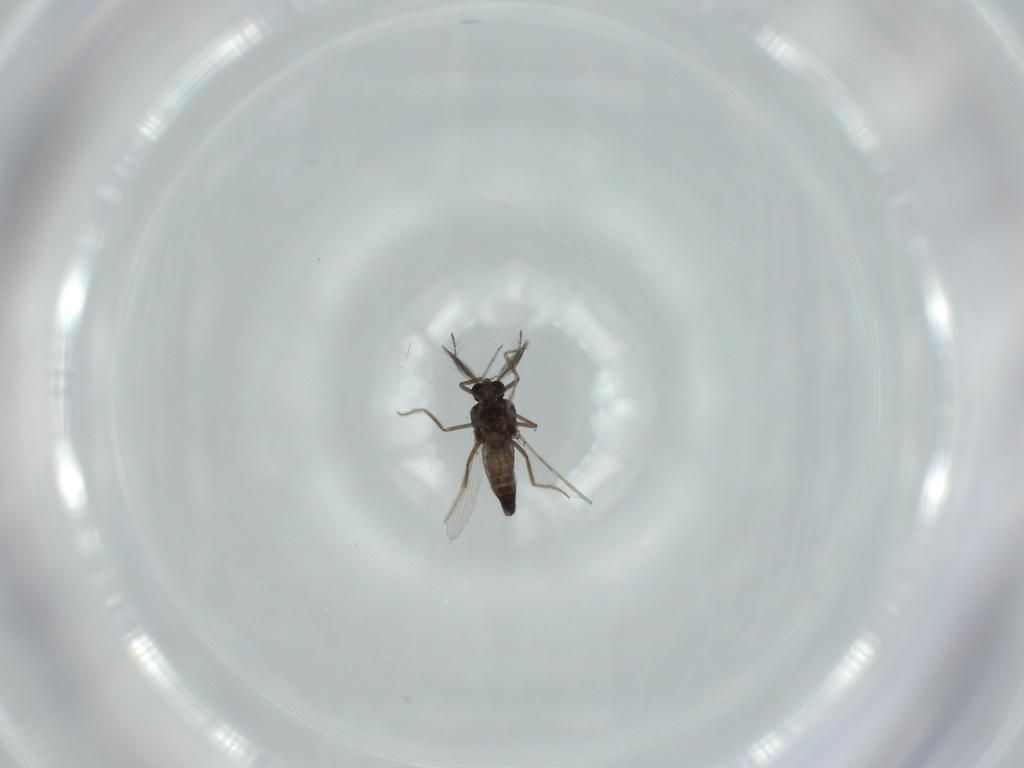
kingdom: Animalia
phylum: Arthropoda
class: Insecta
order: Diptera
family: Ceratopogonidae
